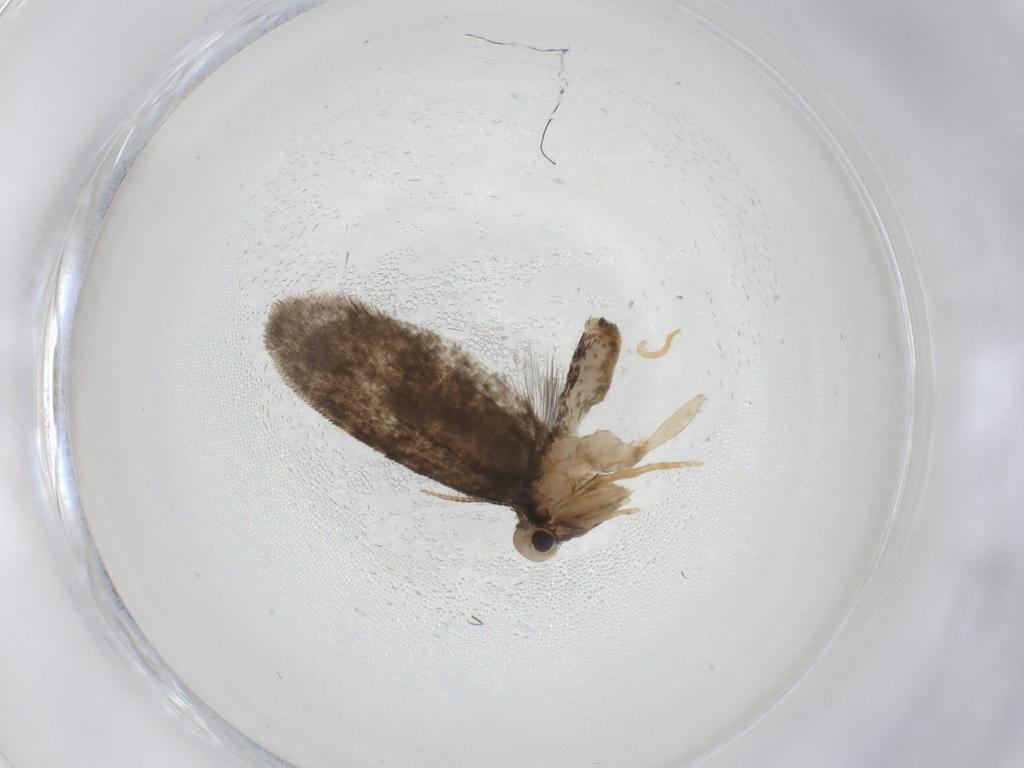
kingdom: Animalia
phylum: Arthropoda
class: Insecta
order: Lepidoptera
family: Psychidae
